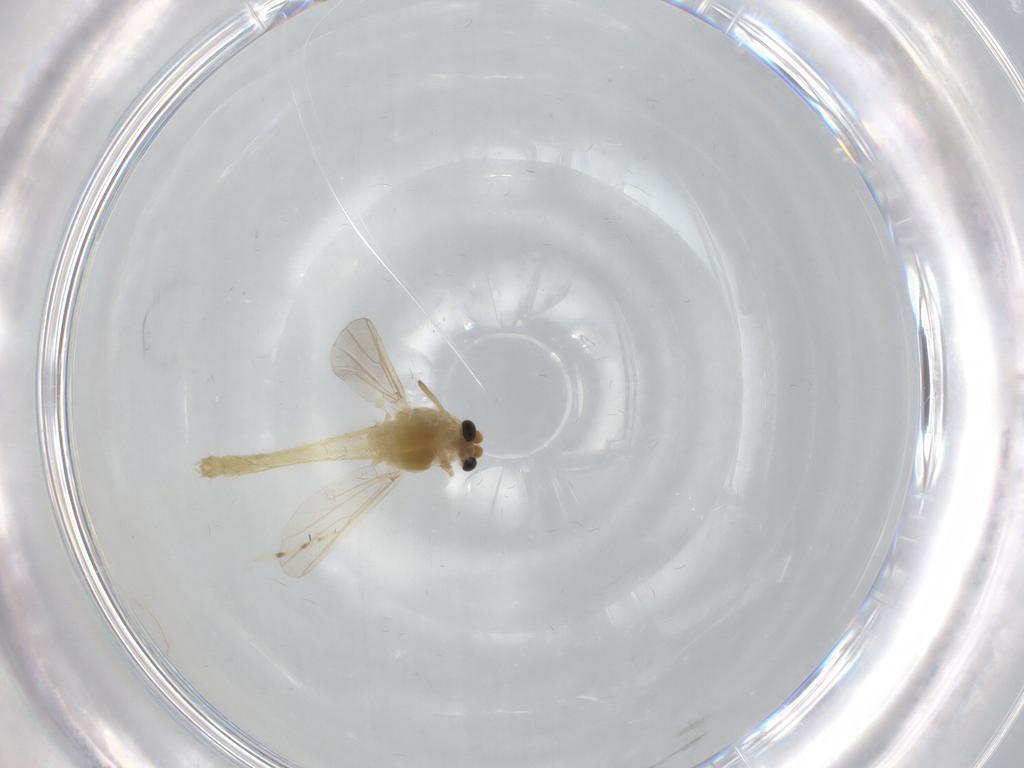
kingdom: Animalia
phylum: Arthropoda
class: Insecta
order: Diptera
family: Chironomidae
